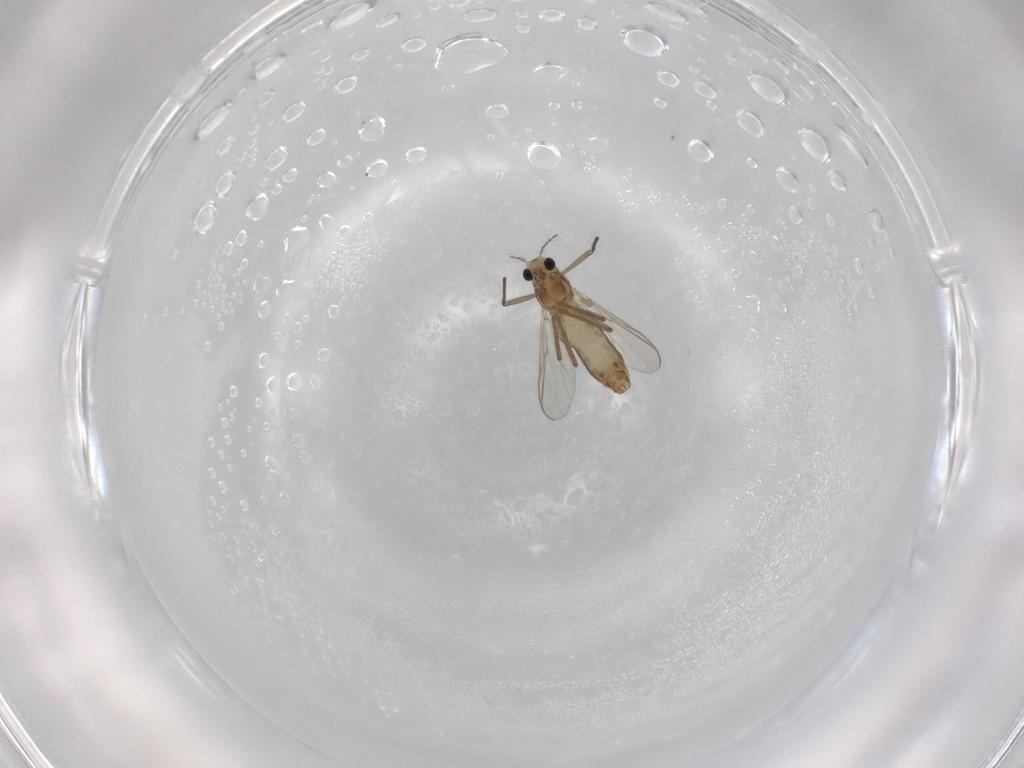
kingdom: Animalia
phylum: Arthropoda
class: Insecta
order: Diptera
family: Chironomidae
